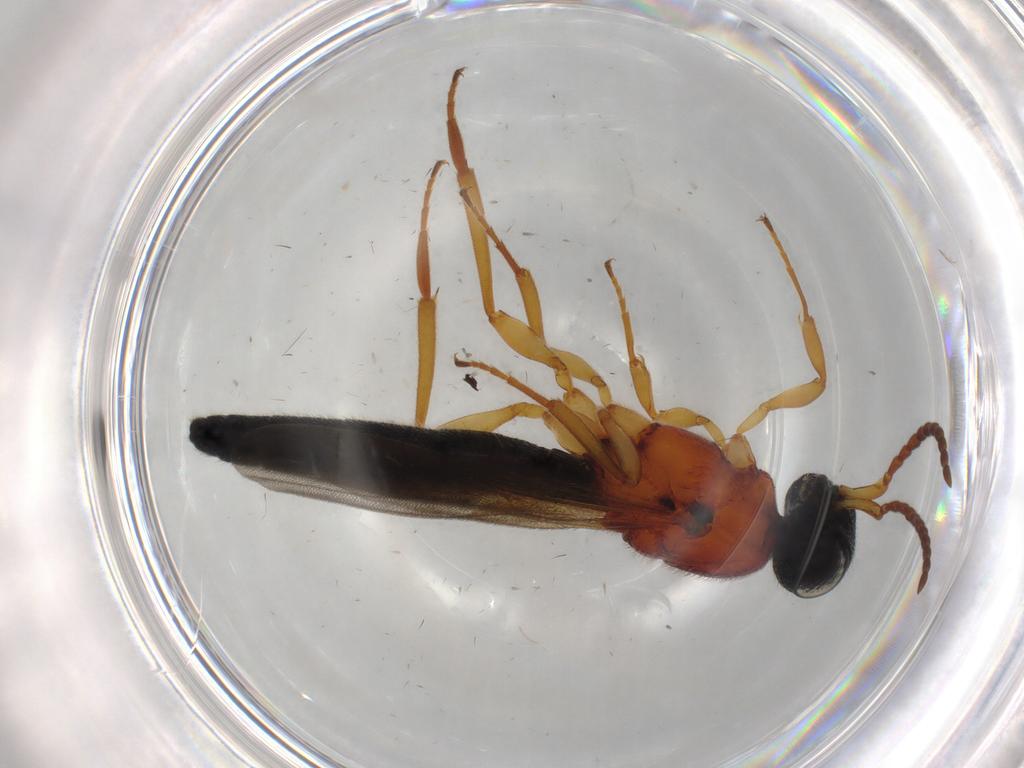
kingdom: Animalia
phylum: Arthropoda
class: Insecta
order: Hymenoptera
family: Scelionidae
